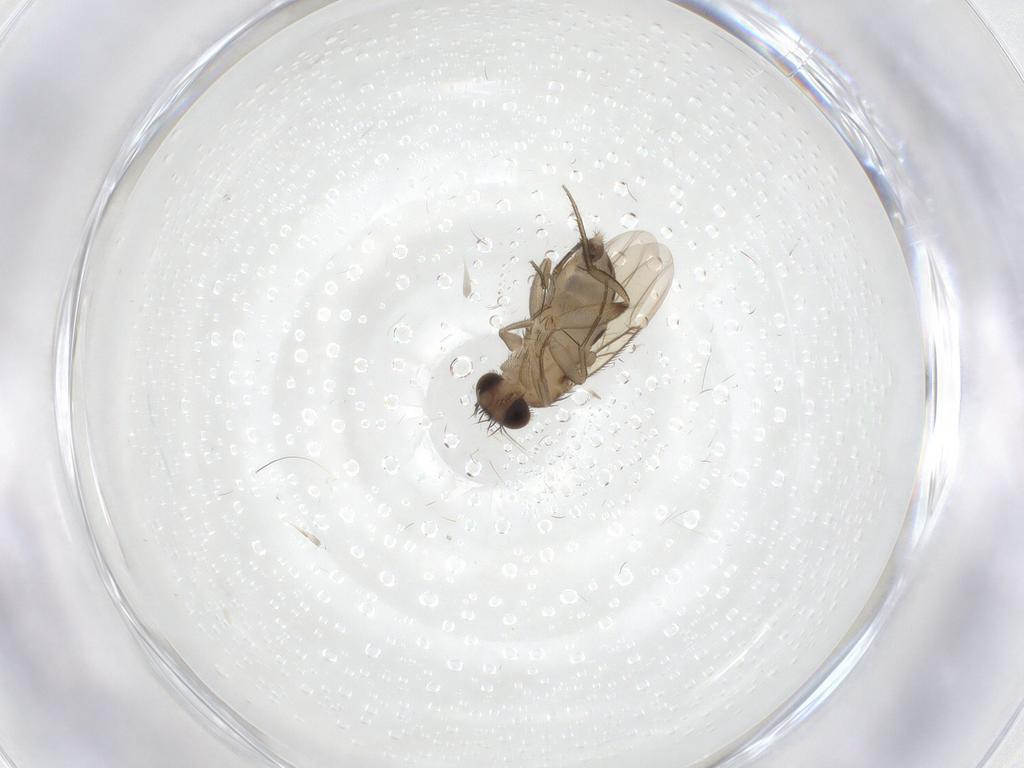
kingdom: Animalia
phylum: Arthropoda
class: Insecta
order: Diptera
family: Phoridae
